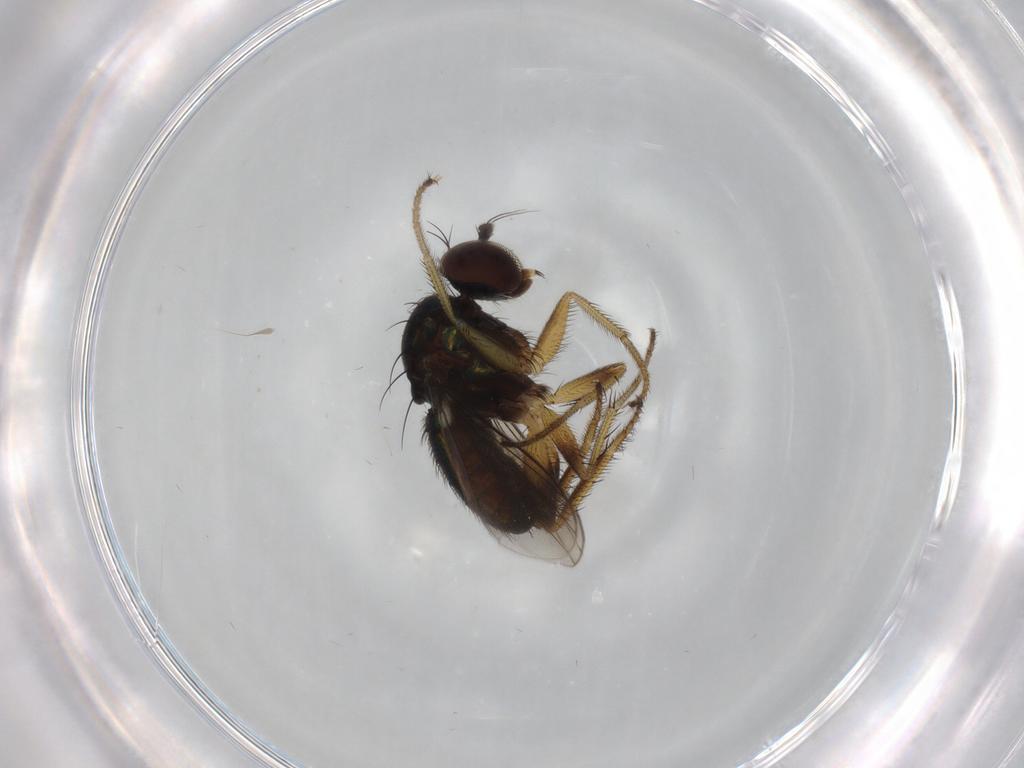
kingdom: Animalia
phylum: Arthropoda
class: Insecta
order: Diptera
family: Dolichopodidae
